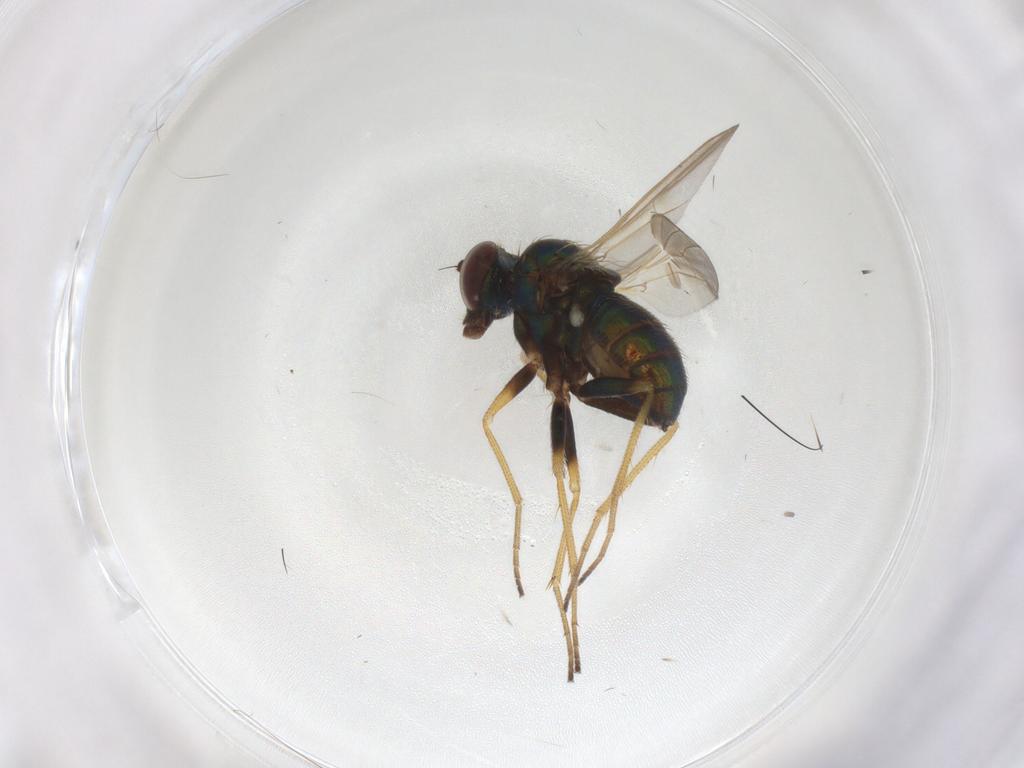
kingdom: Animalia
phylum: Arthropoda
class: Insecta
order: Diptera
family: Dolichopodidae
